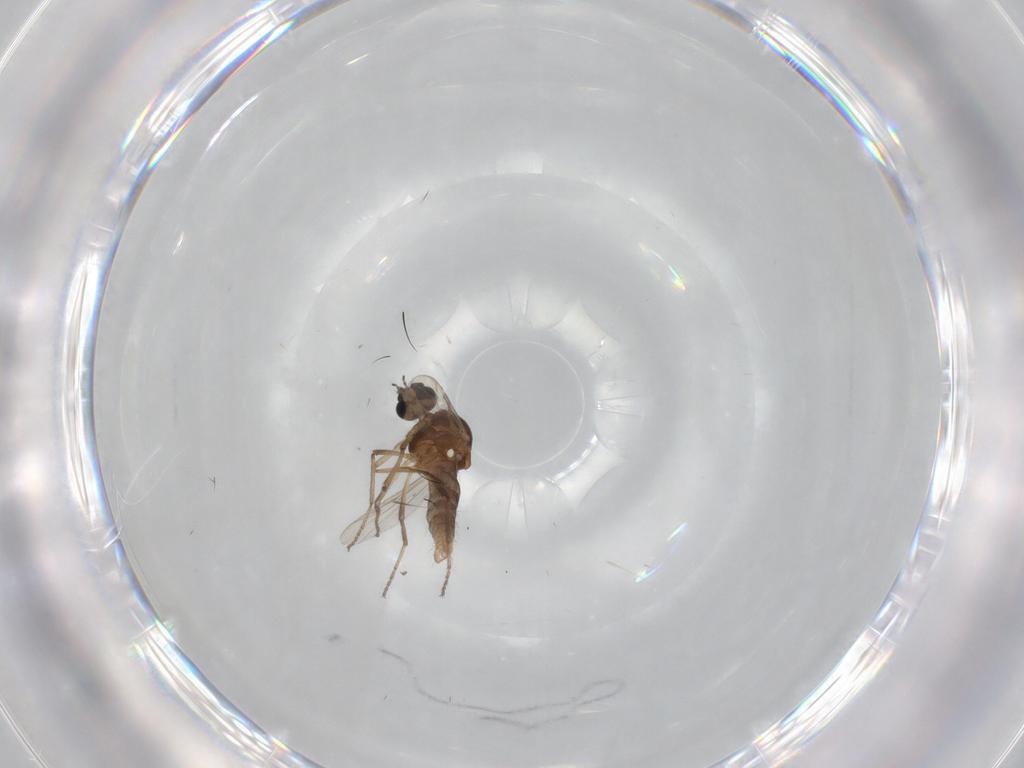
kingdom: Animalia
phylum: Arthropoda
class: Insecta
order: Diptera
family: Ceratopogonidae
